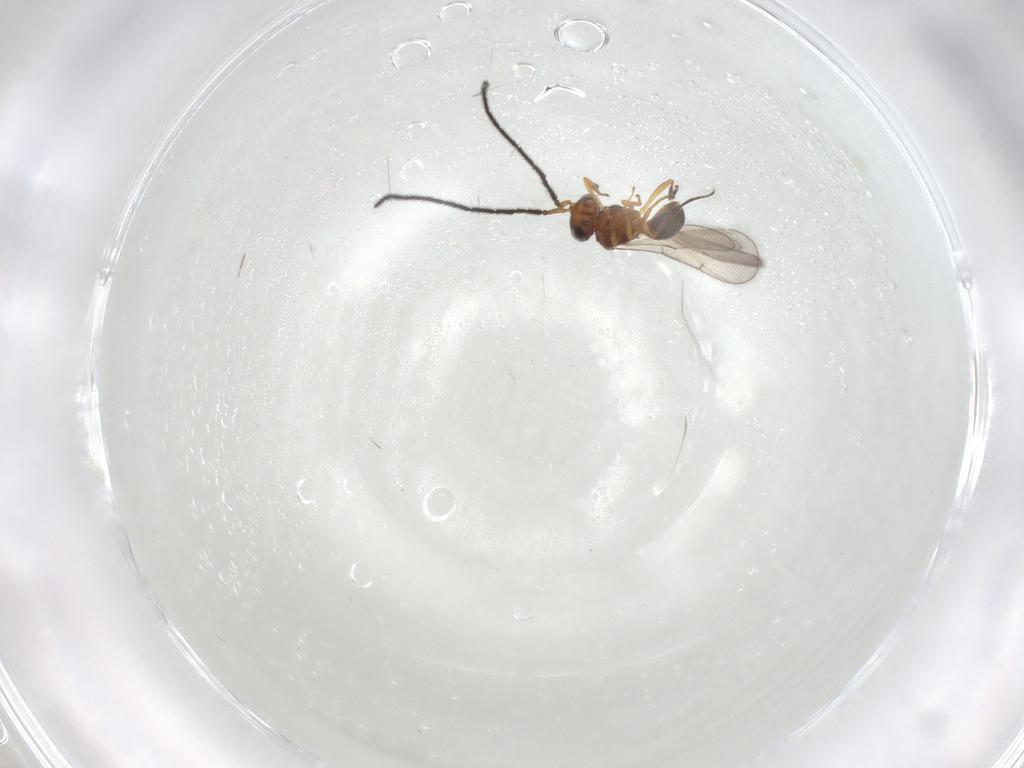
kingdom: Animalia
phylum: Arthropoda
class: Insecta
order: Hymenoptera
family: Scelionidae
